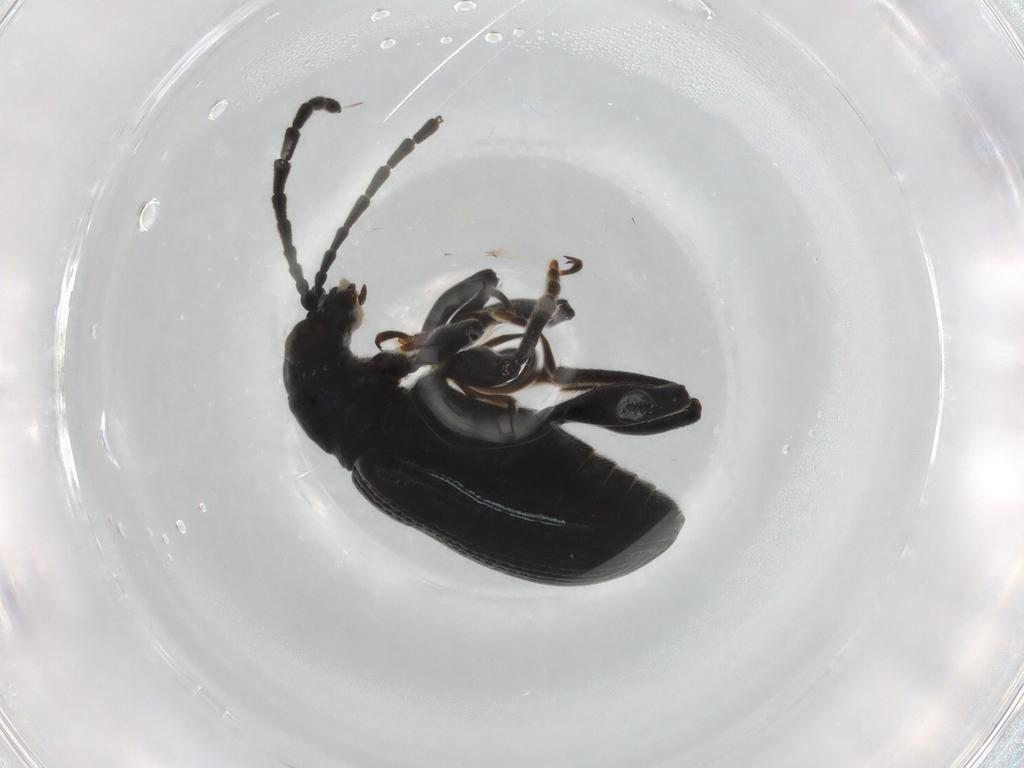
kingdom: Animalia
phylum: Arthropoda
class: Insecta
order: Coleoptera
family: Chrysomelidae
